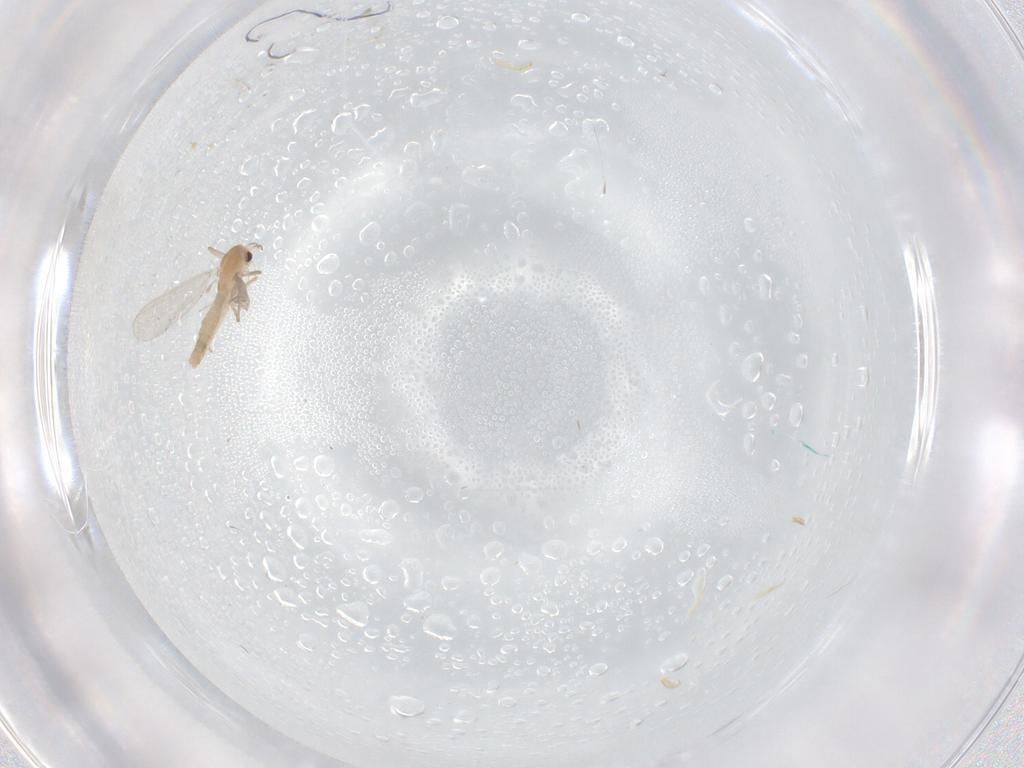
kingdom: Animalia
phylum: Arthropoda
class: Insecta
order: Diptera
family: Chironomidae
